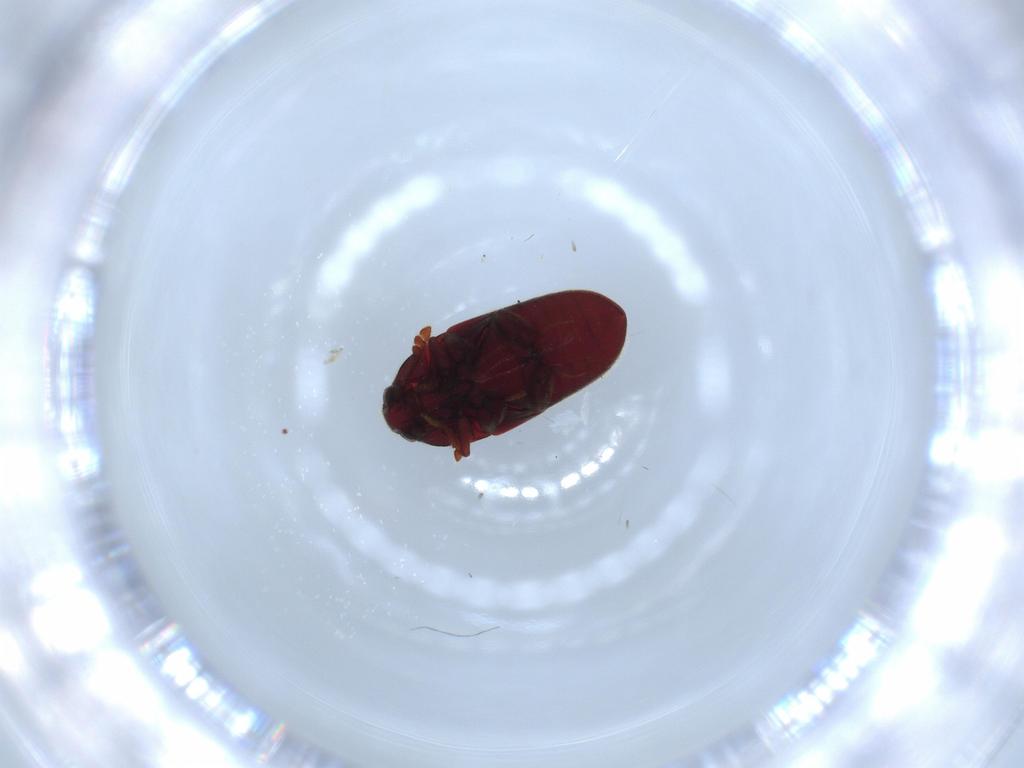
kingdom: Animalia
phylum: Arthropoda
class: Insecta
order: Coleoptera
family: Throscidae
